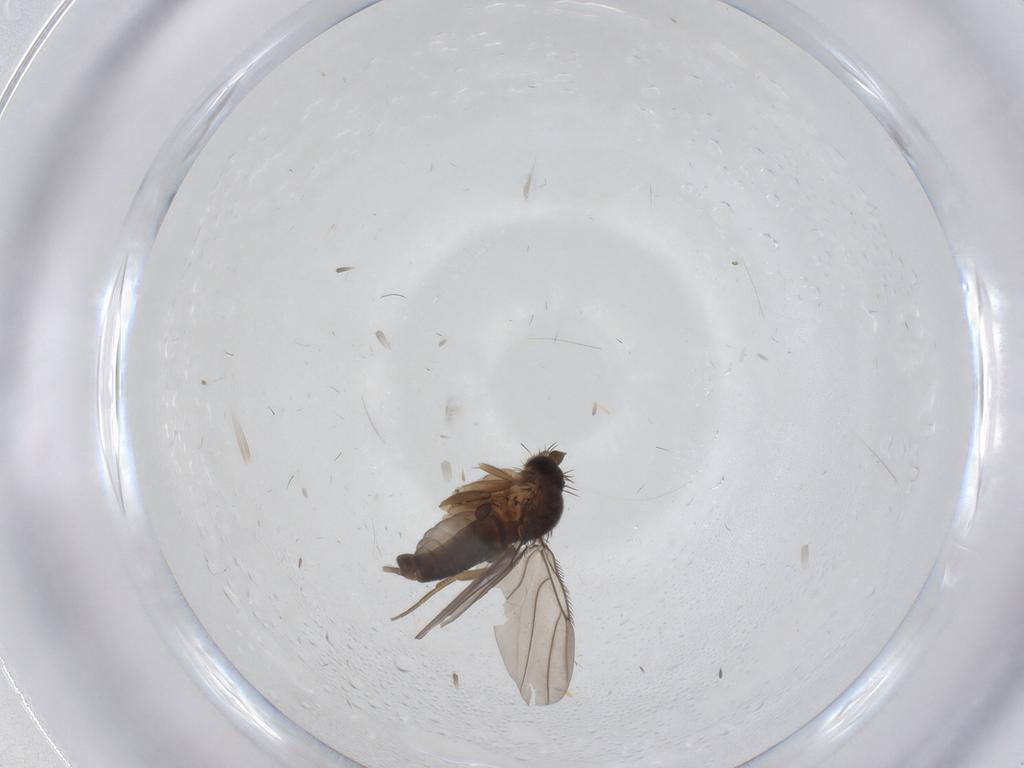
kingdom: Animalia
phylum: Arthropoda
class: Insecta
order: Diptera
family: Phoridae
